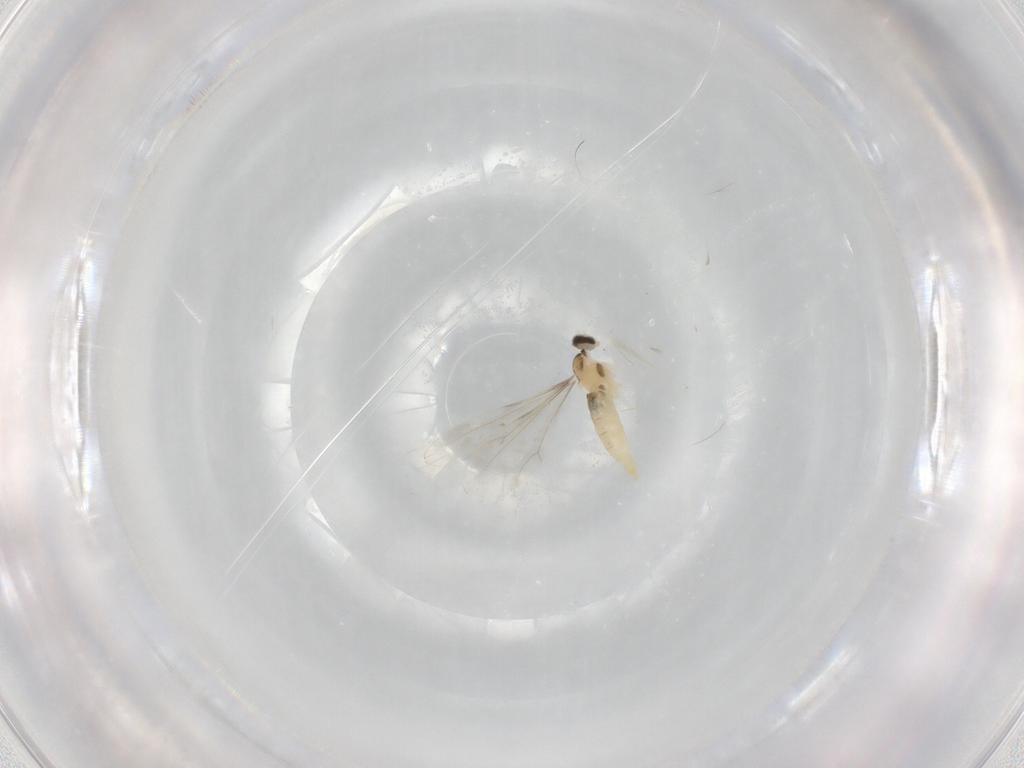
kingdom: Animalia
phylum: Arthropoda
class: Insecta
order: Diptera
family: Cecidomyiidae
